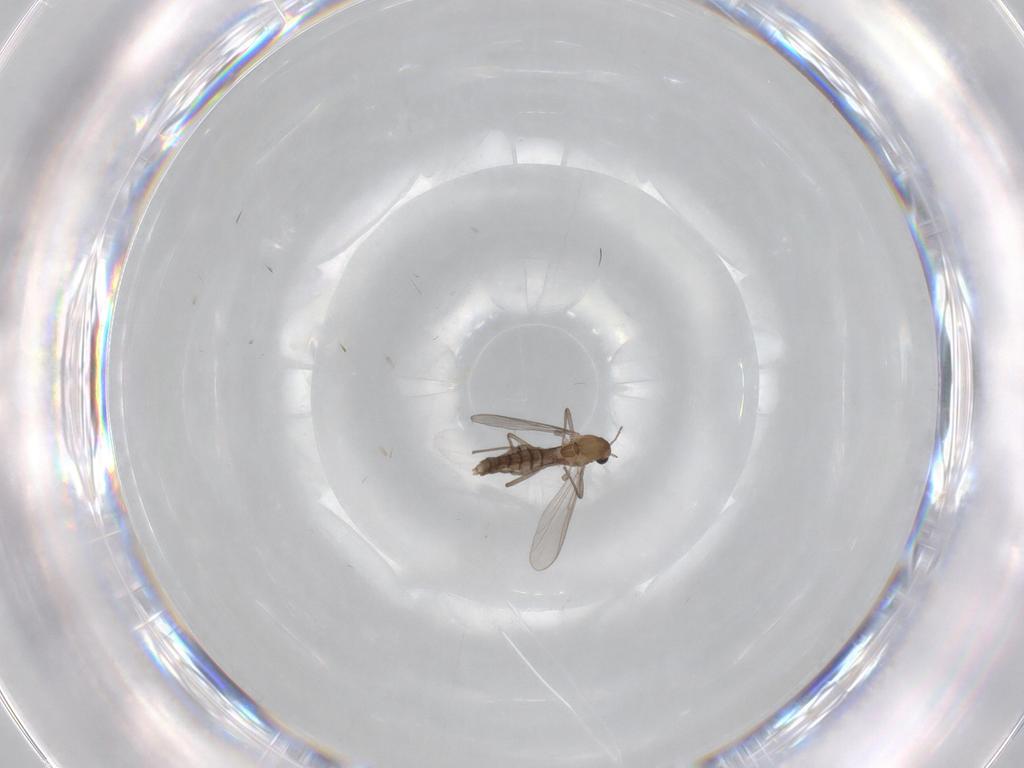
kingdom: Animalia
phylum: Arthropoda
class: Insecta
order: Diptera
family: Chironomidae
